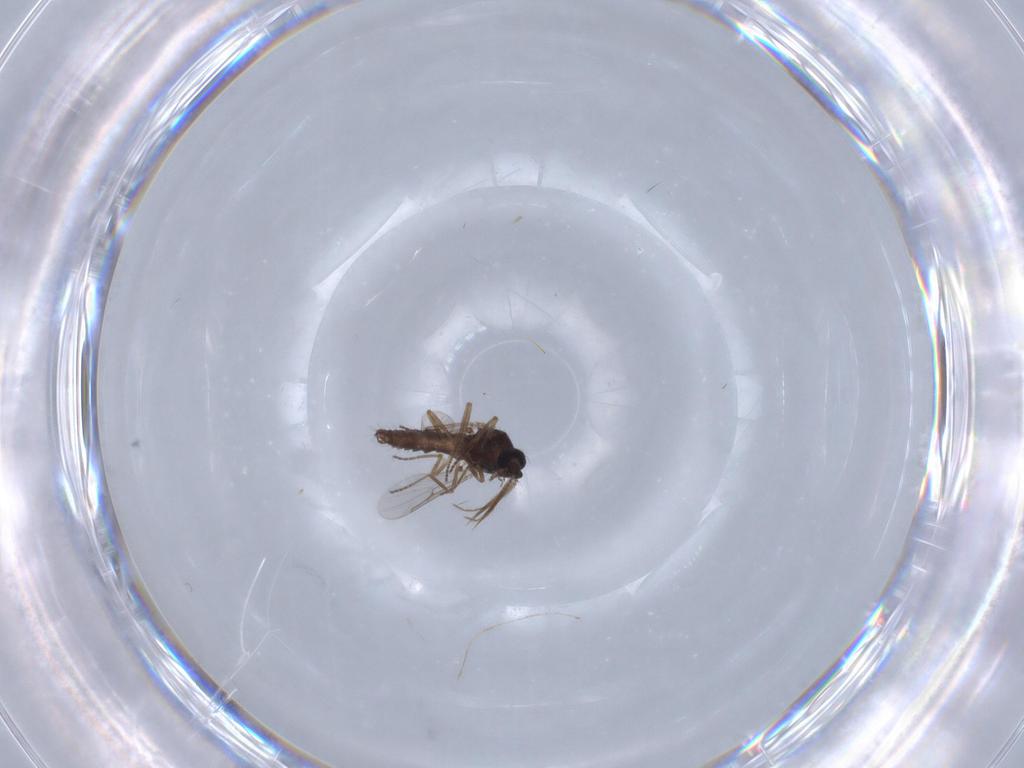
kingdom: Animalia
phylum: Arthropoda
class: Insecta
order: Diptera
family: Ceratopogonidae
